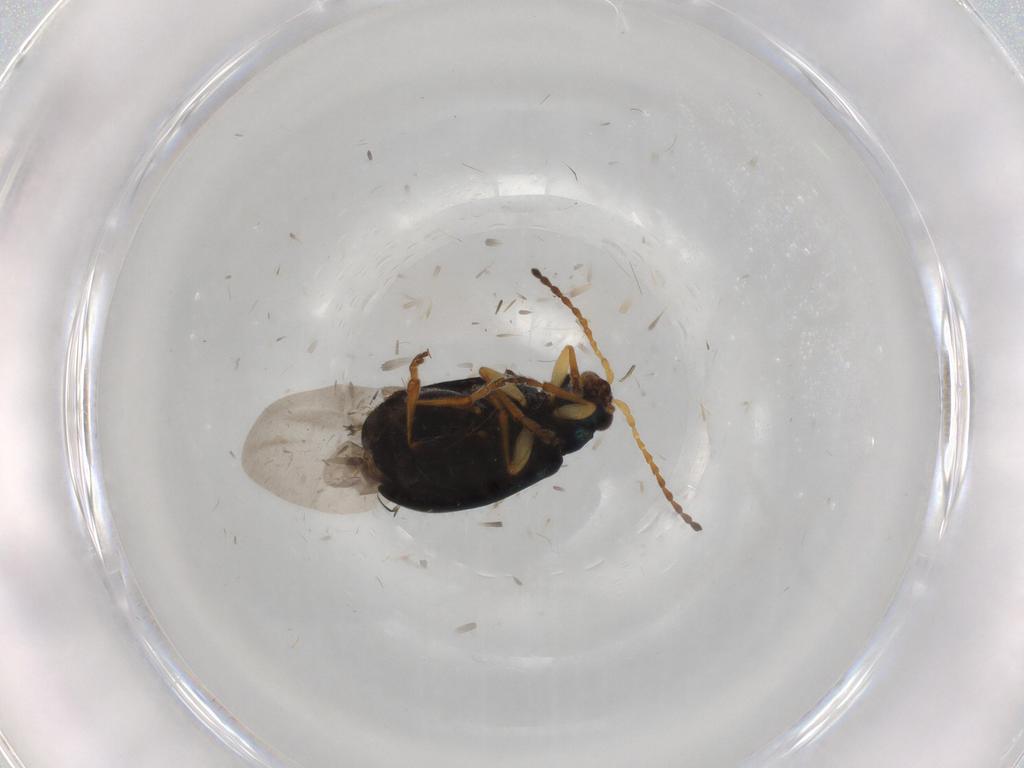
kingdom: Animalia
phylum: Arthropoda
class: Insecta
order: Coleoptera
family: Chrysomelidae
